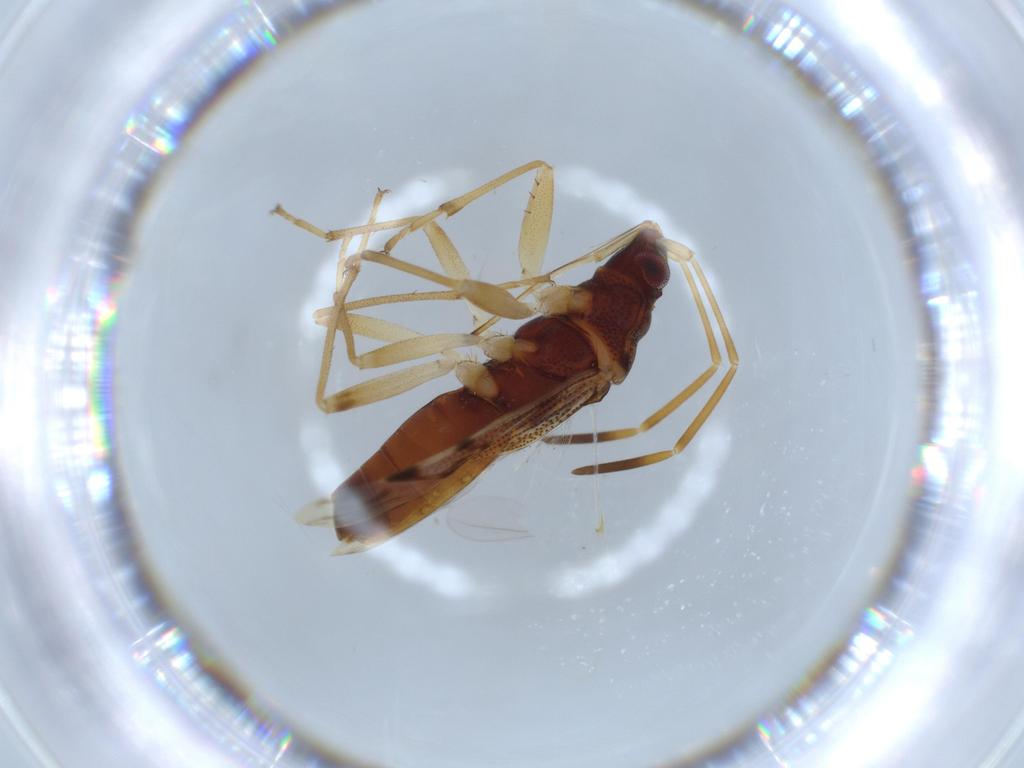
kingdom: Animalia
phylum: Arthropoda
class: Insecta
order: Hemiptera
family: Rhyparochromidae
